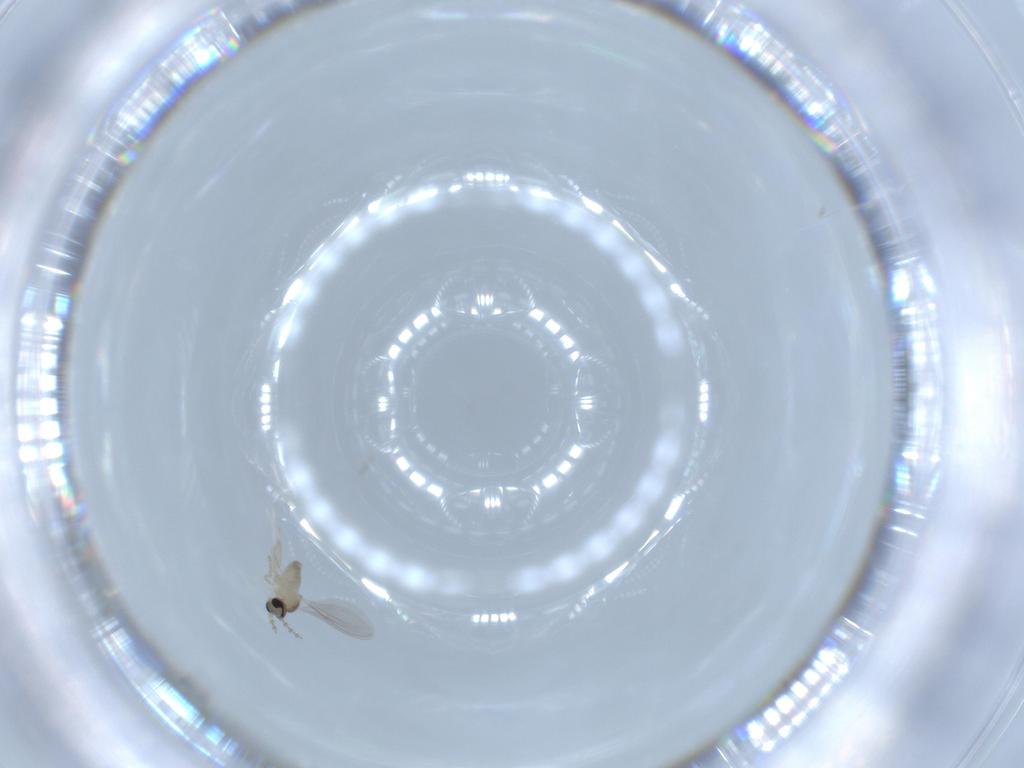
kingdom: Animalia
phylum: Arthropoda
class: Insecta
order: Diptera
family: Cecidomyiidae
